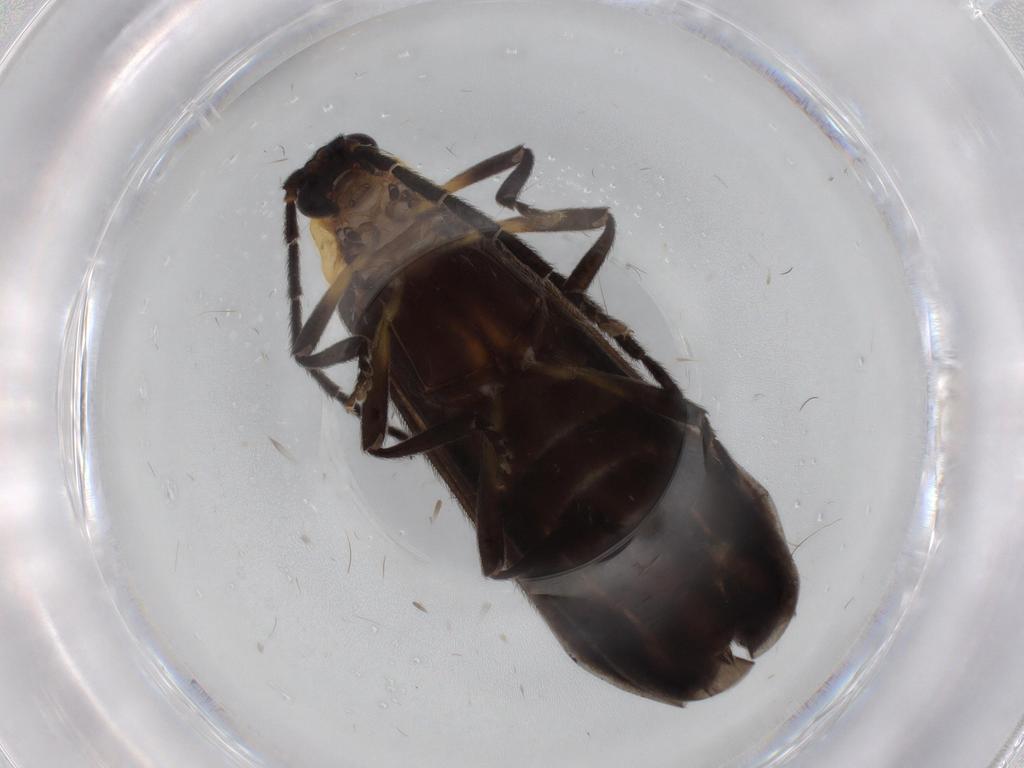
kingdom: Animalia
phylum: Arthropoda
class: Insecta
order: Coleoptera
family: Lycidae
